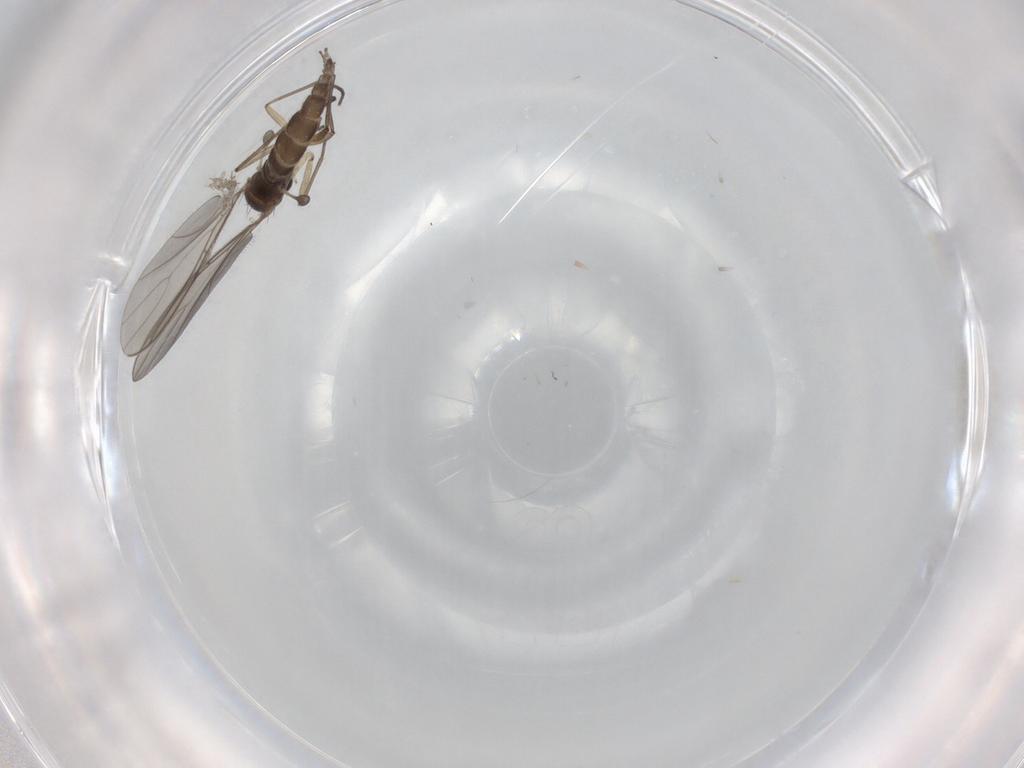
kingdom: Animalia
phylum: Arthropoda
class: Insecta
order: Diptera
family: Sciaridae
